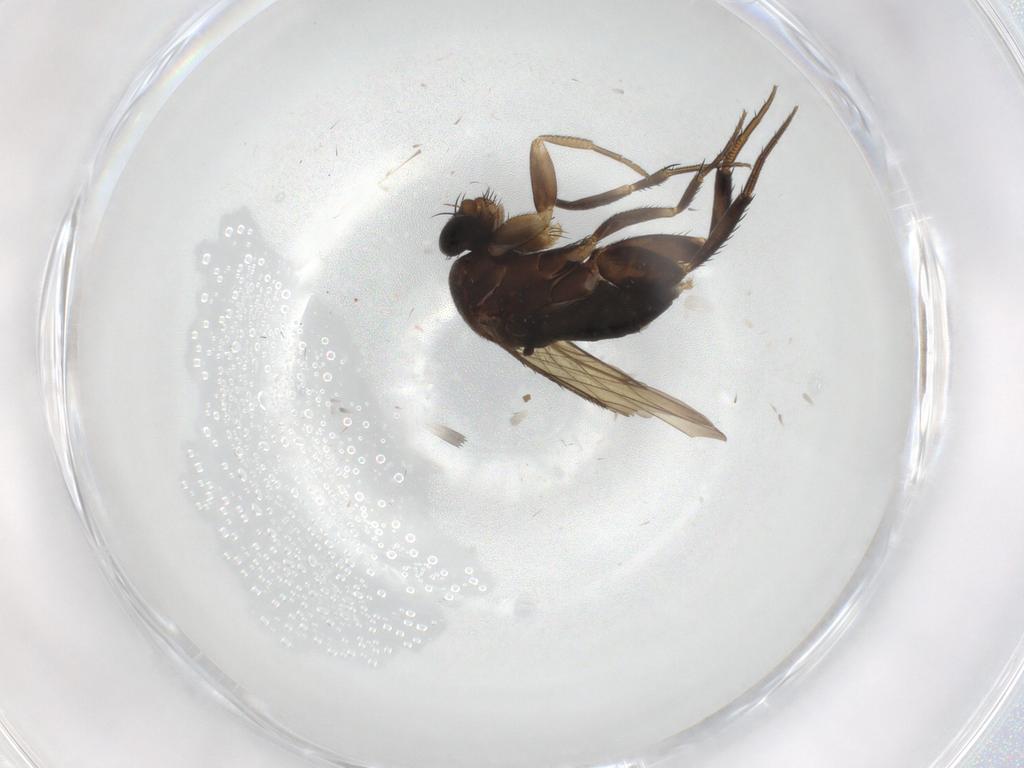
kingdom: Animalia
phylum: Arthropoda
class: Insecta
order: Diptera
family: Phoridae
